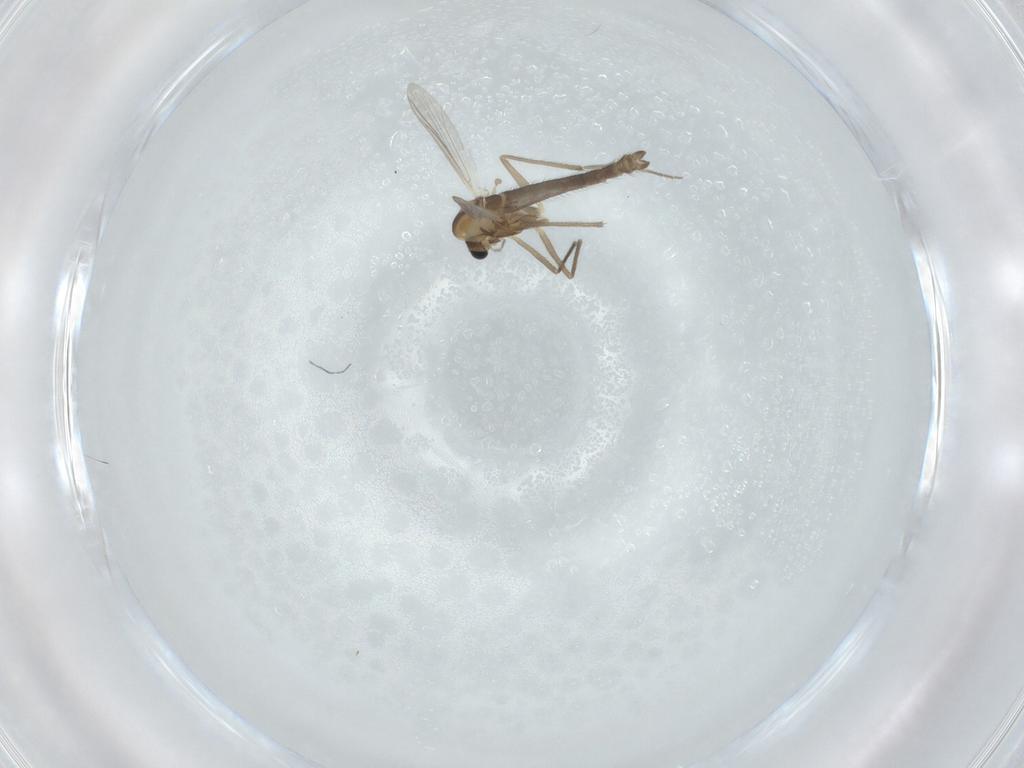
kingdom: Animalia
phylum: Arthropoda
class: Insecta
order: Diptera
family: Chironomidae
